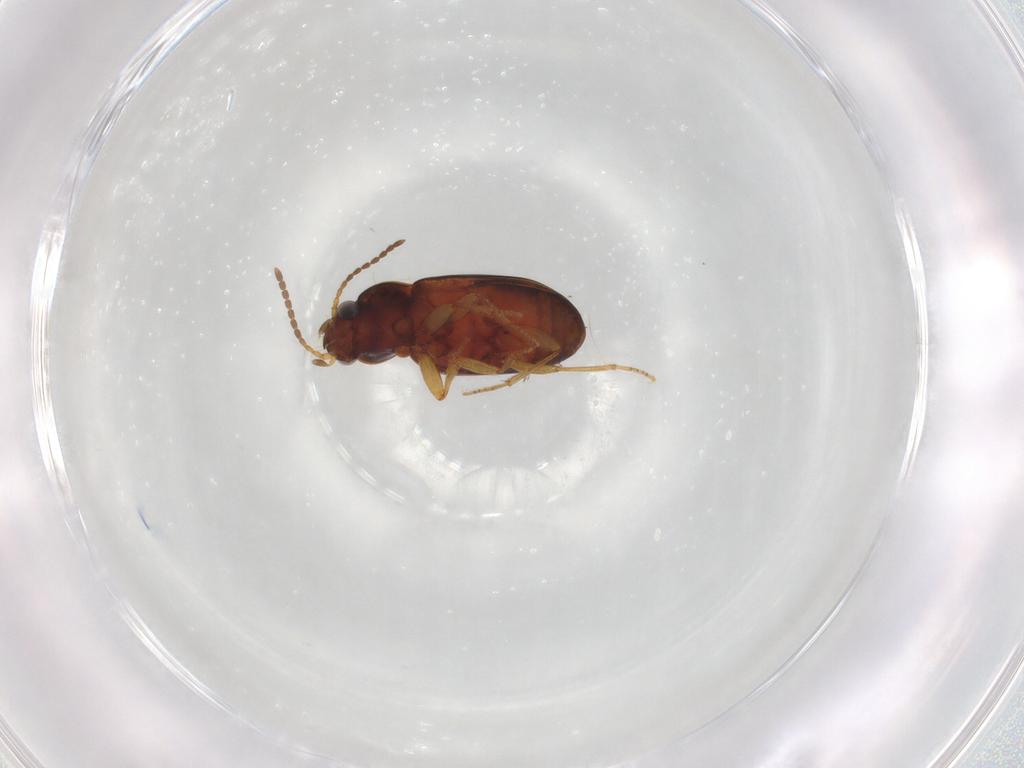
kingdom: Animalia
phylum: Arthropoda
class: Insecta
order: Coleoptera
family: Carabidae
